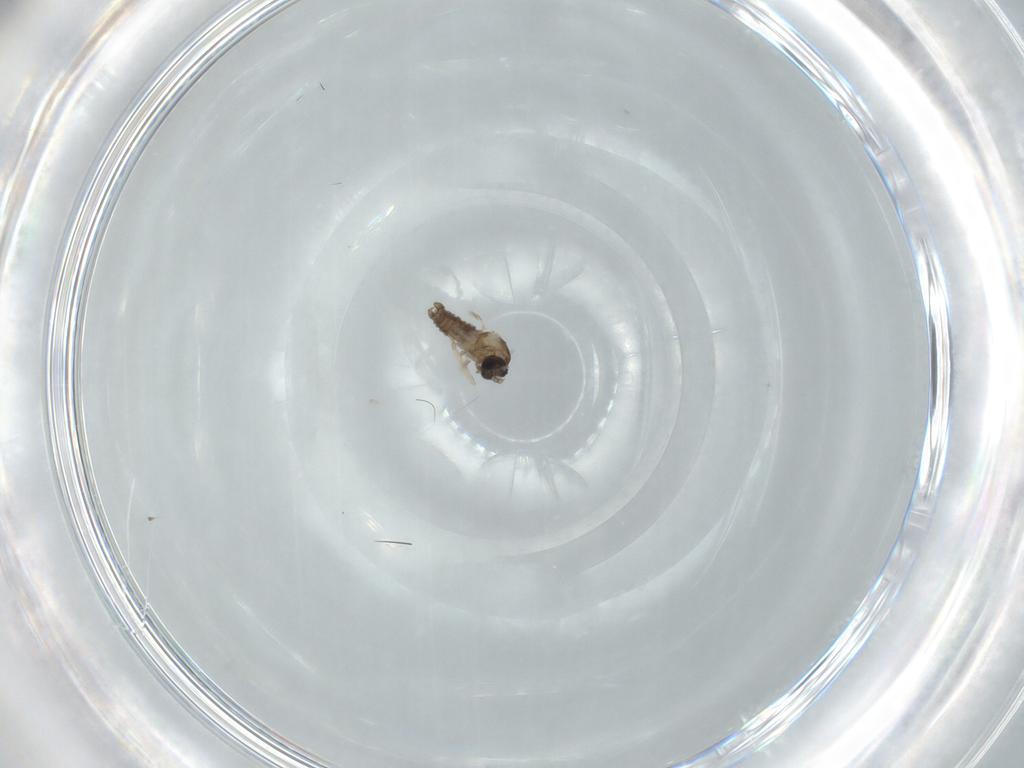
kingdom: Animalia
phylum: Arthropoda
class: Insecta
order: Diptera
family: Cecidomyiidae
